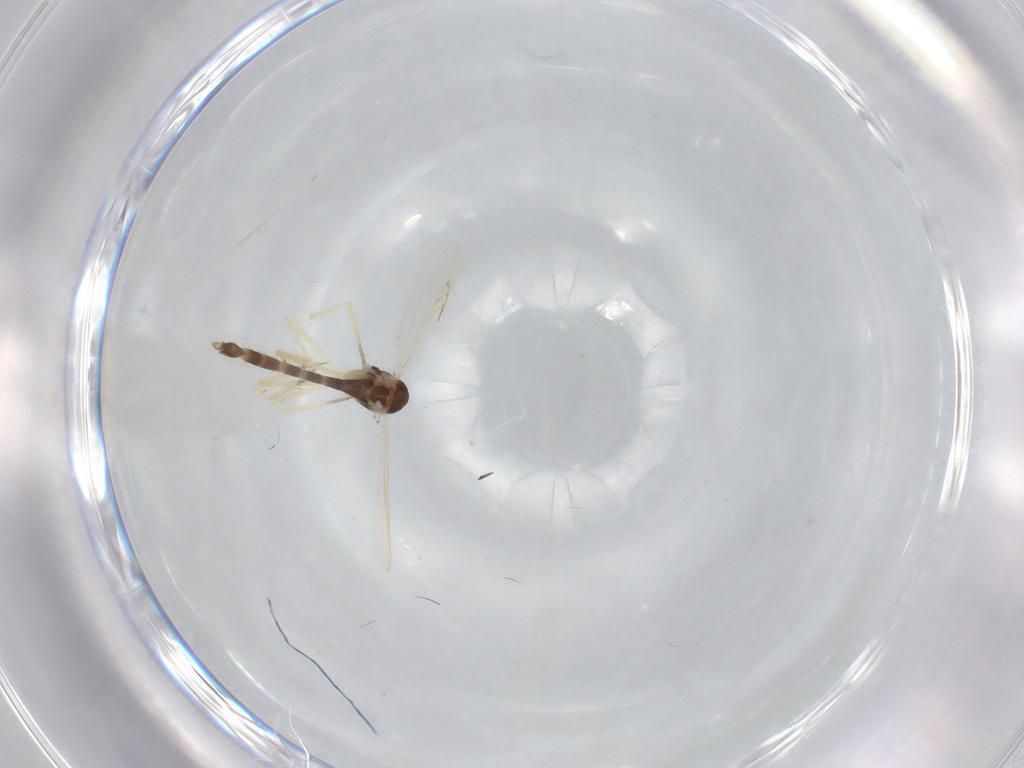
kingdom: Animalia
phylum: Arthropoda
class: Insecta
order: Diptera
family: Chironomidae
